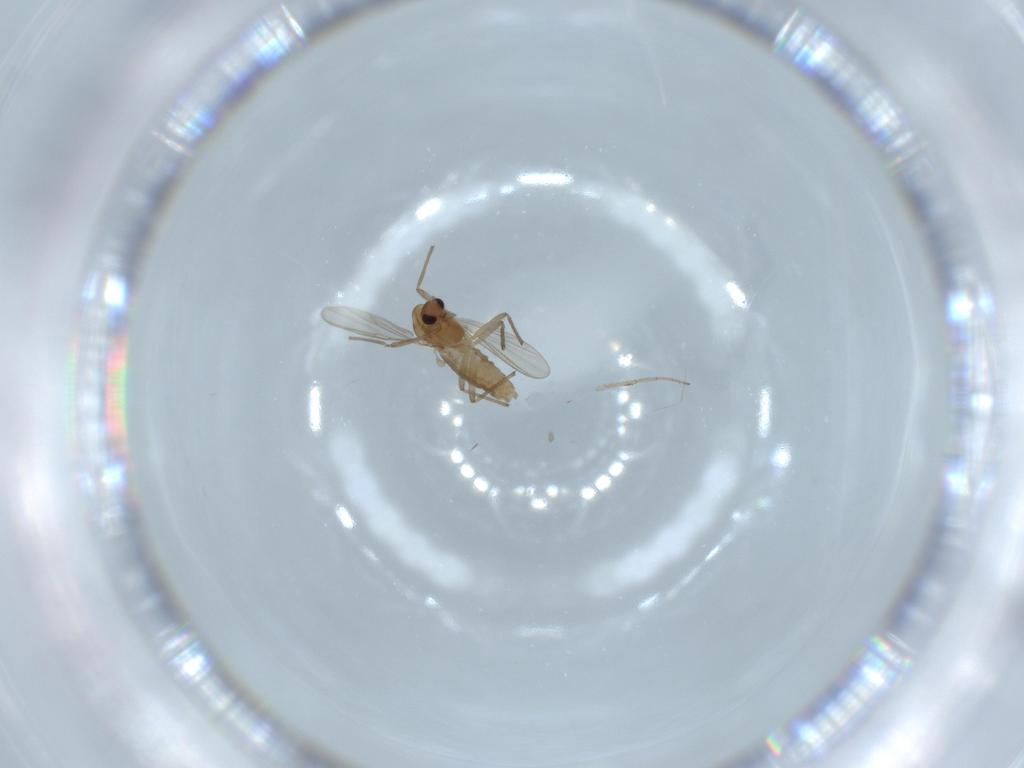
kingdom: Animalia
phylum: Arthropoda
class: Insecta
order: Diptera
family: Chironomidae
